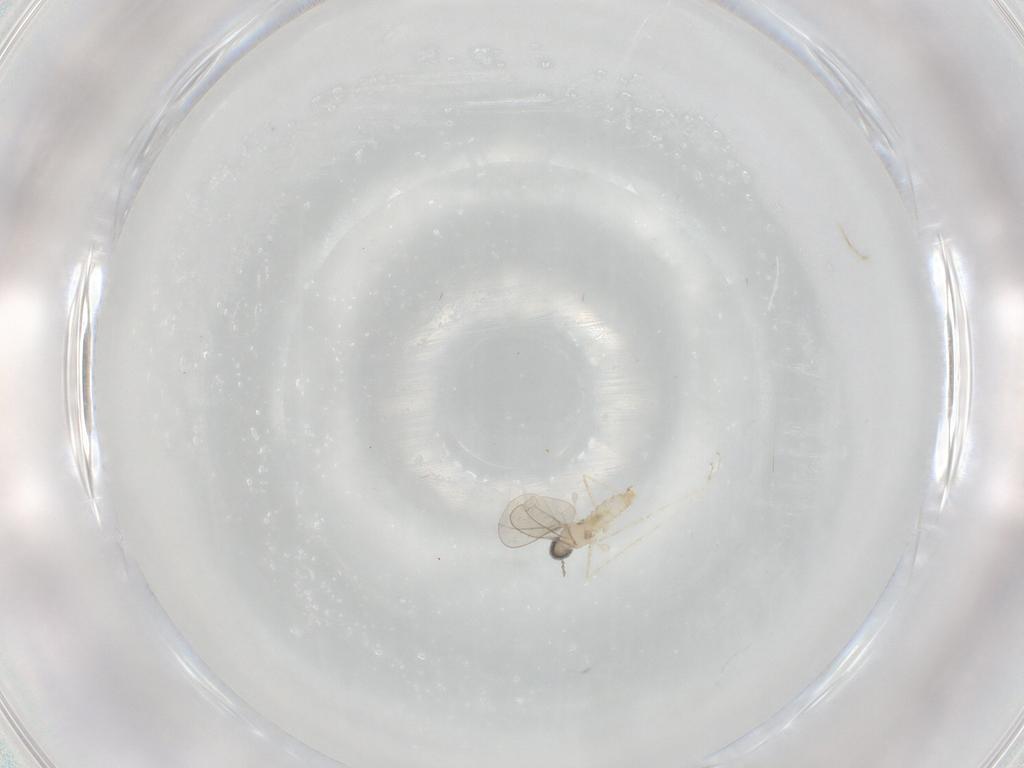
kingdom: Animalia
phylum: Arthropoda
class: Insecta
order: Diptera
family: Cecidomyiidae
